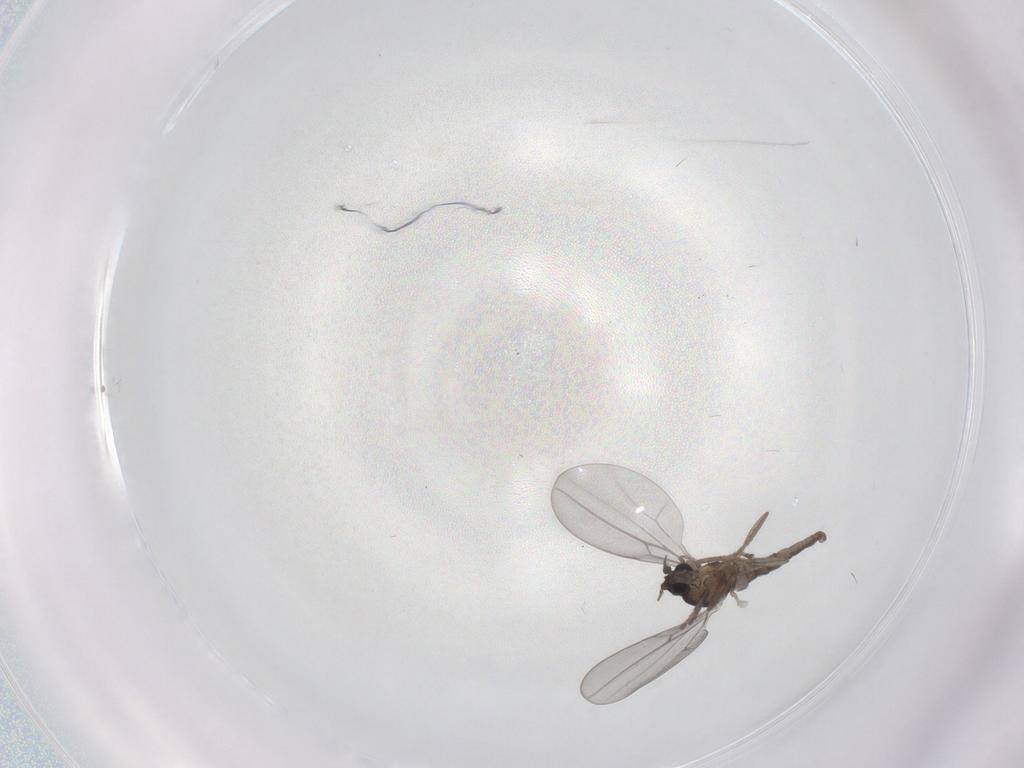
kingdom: Animalia
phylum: Arthropoda
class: Insecta
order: Diptera
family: Cecidomyiidae
